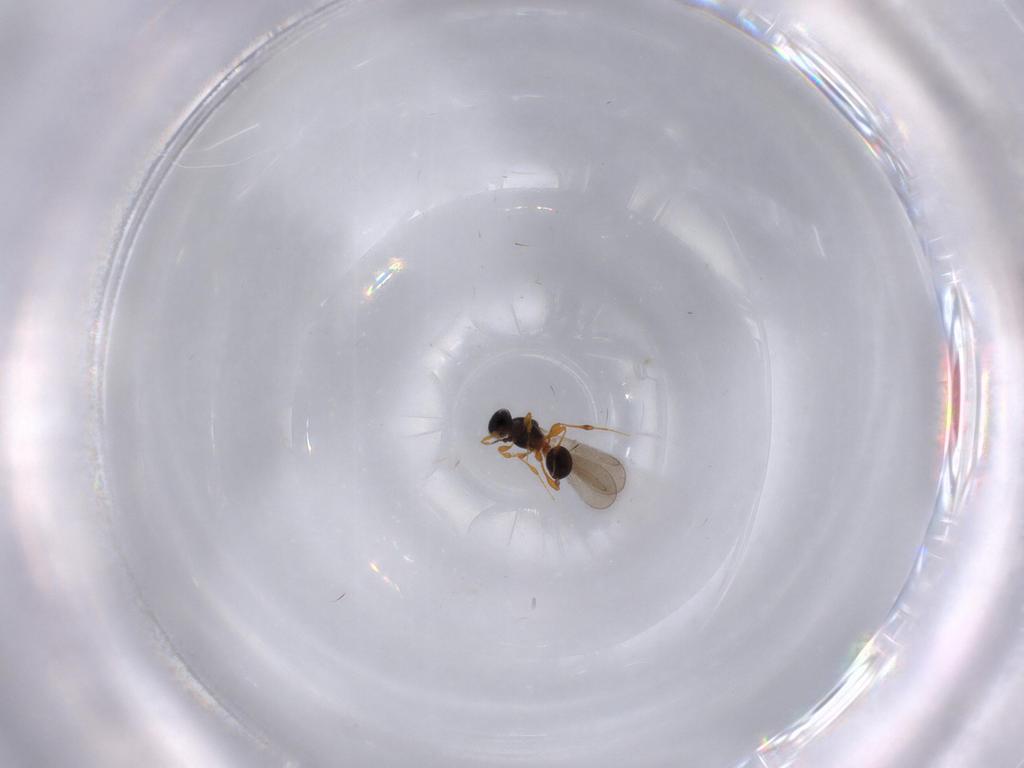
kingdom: Animalia
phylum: Arthropoda
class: Insecta
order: Hymenoptera
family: Platygastridae
